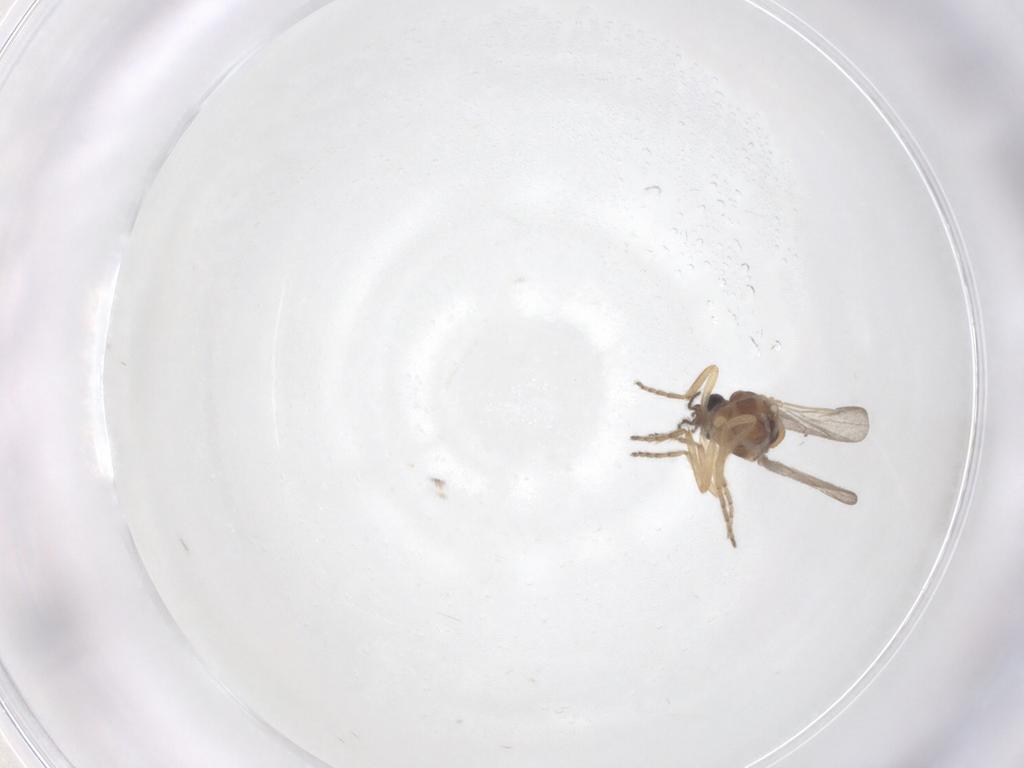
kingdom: Animalia
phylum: Arthropoda
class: Insecta
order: Diptera
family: Ceratopogonidae
